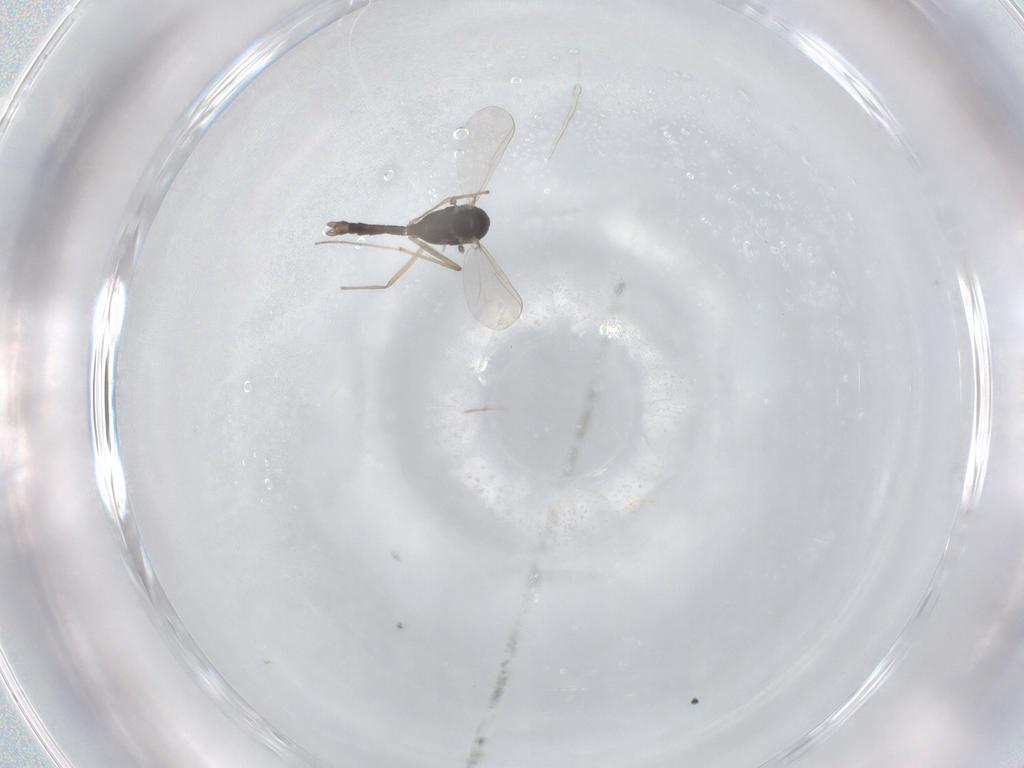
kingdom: Animalia
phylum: Arthropoda
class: Insecta
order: Diptera
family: Chironomidae
